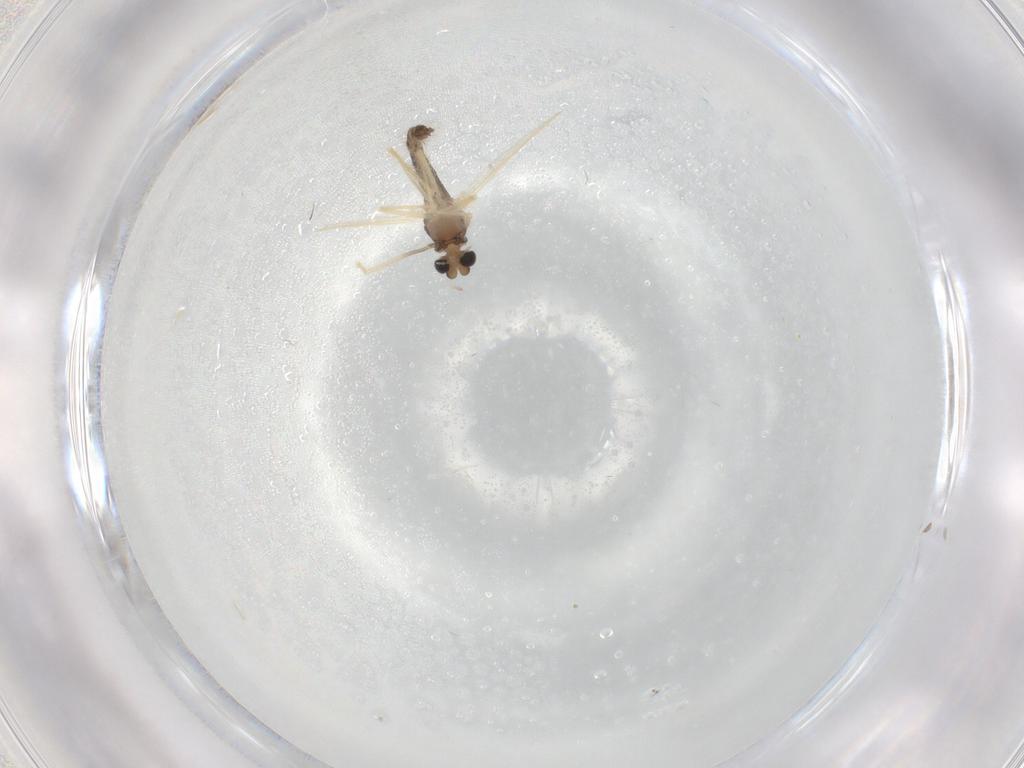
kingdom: Animalia
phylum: Arthropoda
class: Insecta
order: Diptera
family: Chironomidae
